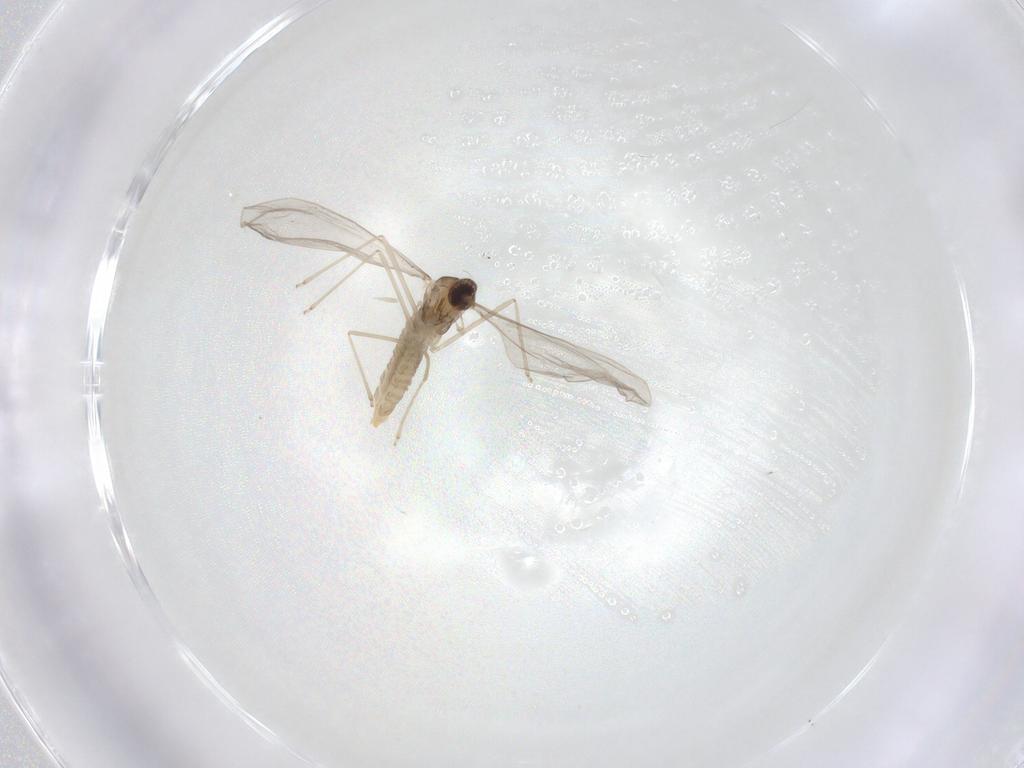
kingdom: Animalia
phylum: Arthropoda
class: Insecta
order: Diptera
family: Cecidomyiidae
